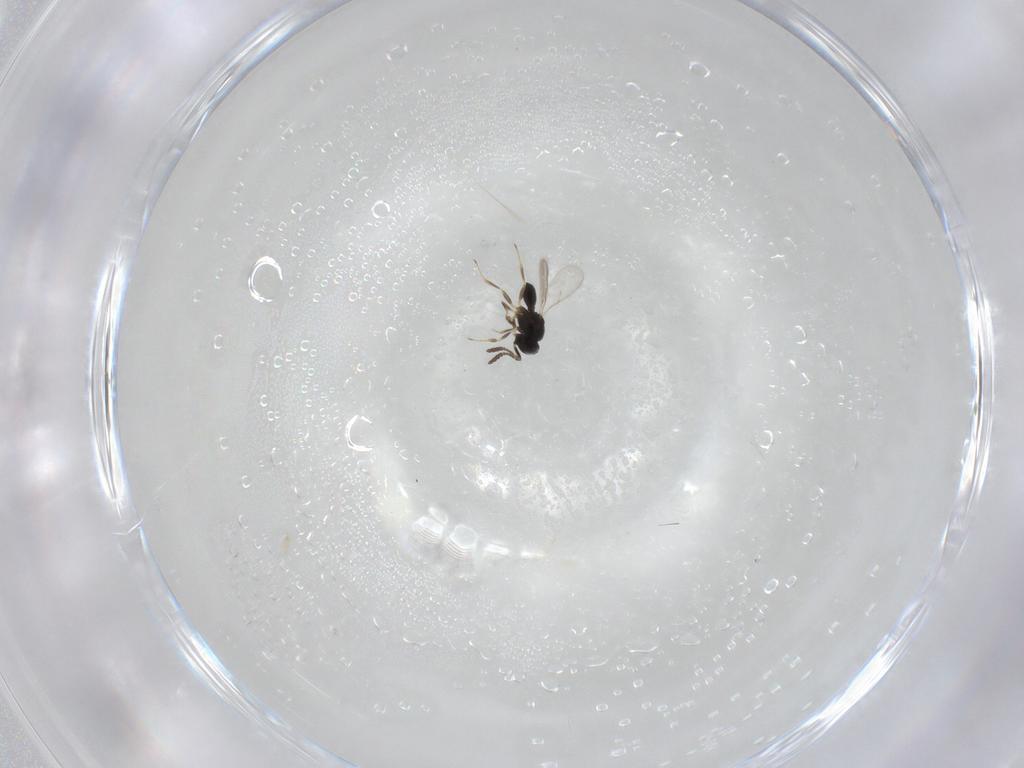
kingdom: Animalia
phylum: Arthropoda
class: Insecta
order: Hymenoptera
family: Scelionidae
